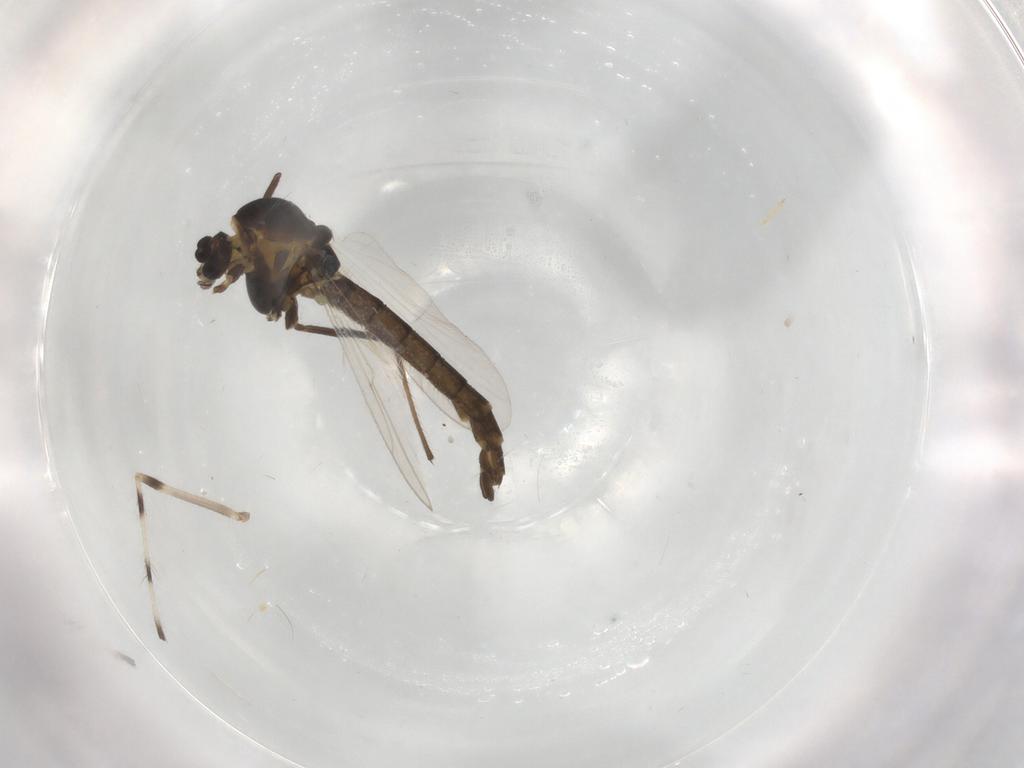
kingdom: Animalia
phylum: Arthropoda
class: Insecta
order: Diptera
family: Chironomidae
